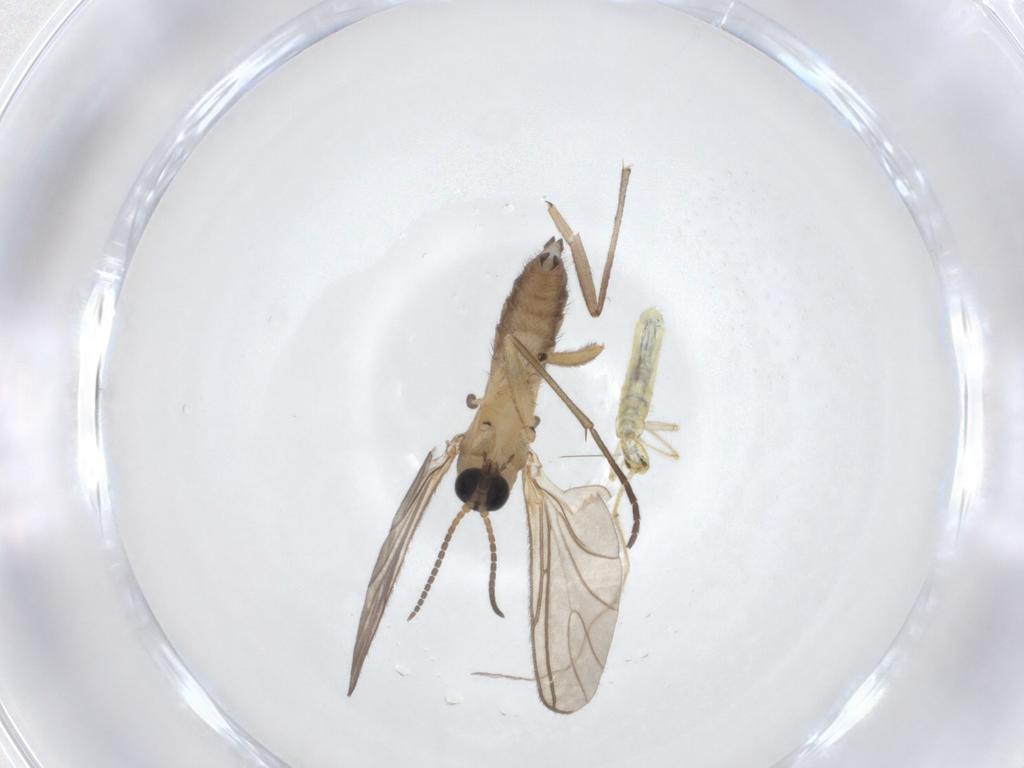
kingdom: Animalia
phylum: Arthropoda
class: Insecta
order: Diptera
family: Sciaridae
